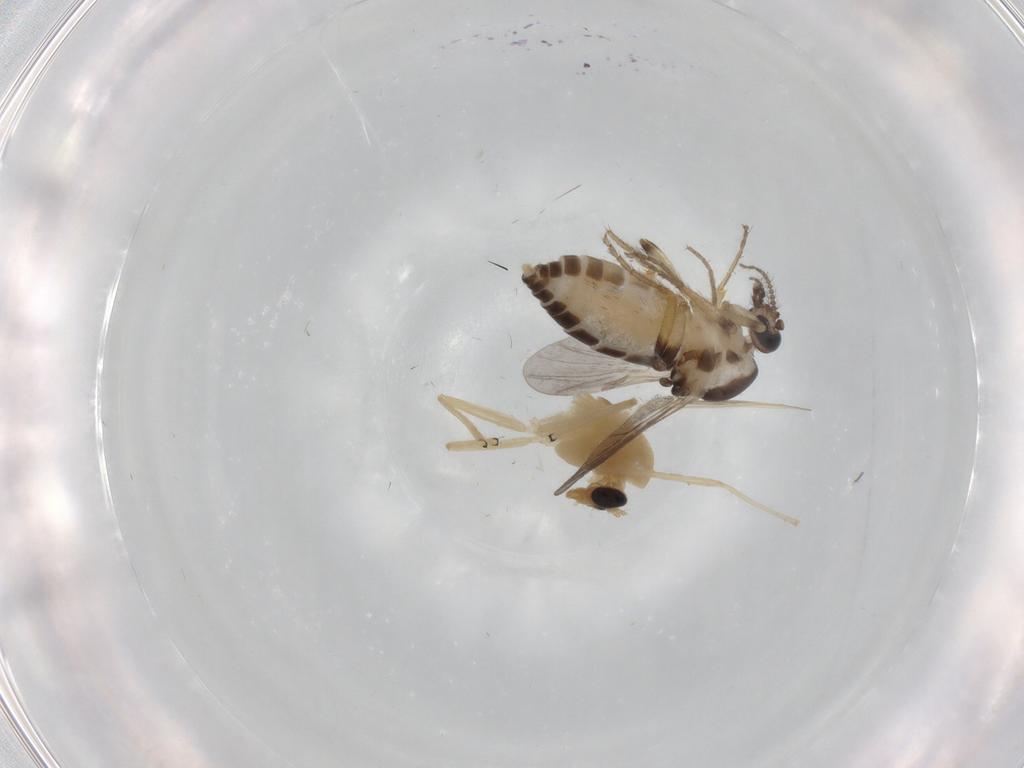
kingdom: Animalia
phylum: Arthropoda
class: Insecta
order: Diptera
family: Ceratopogonidae
